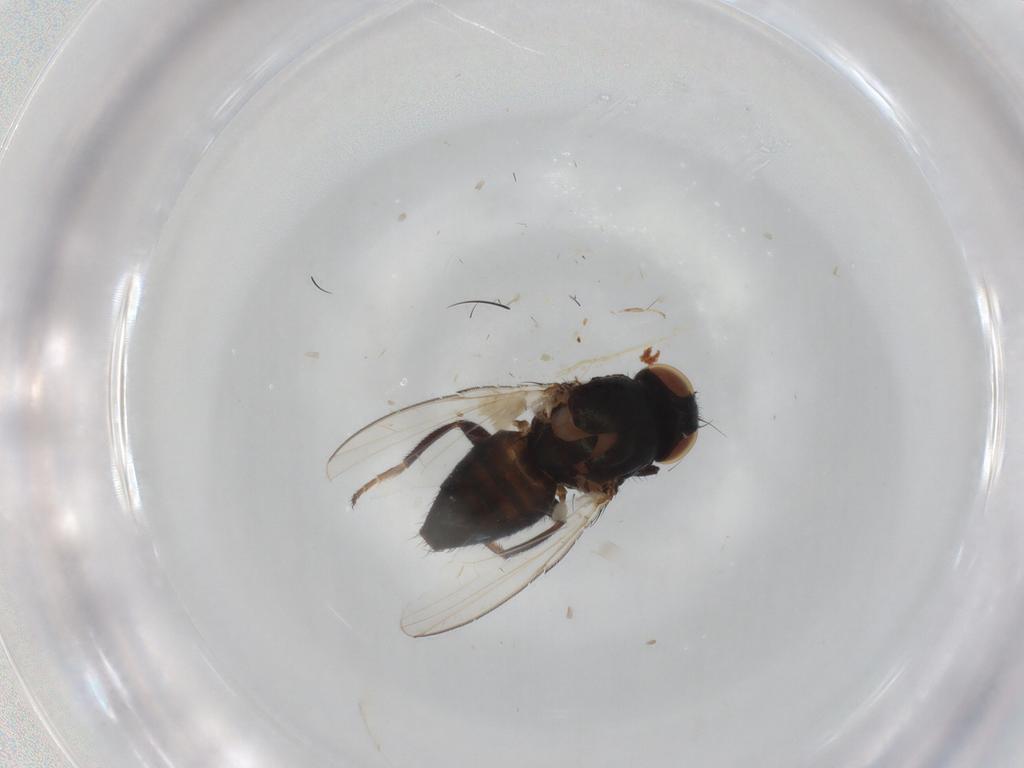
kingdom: Animalia
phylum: Arthropoda
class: Insecta
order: Diptera
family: Milichiidae
